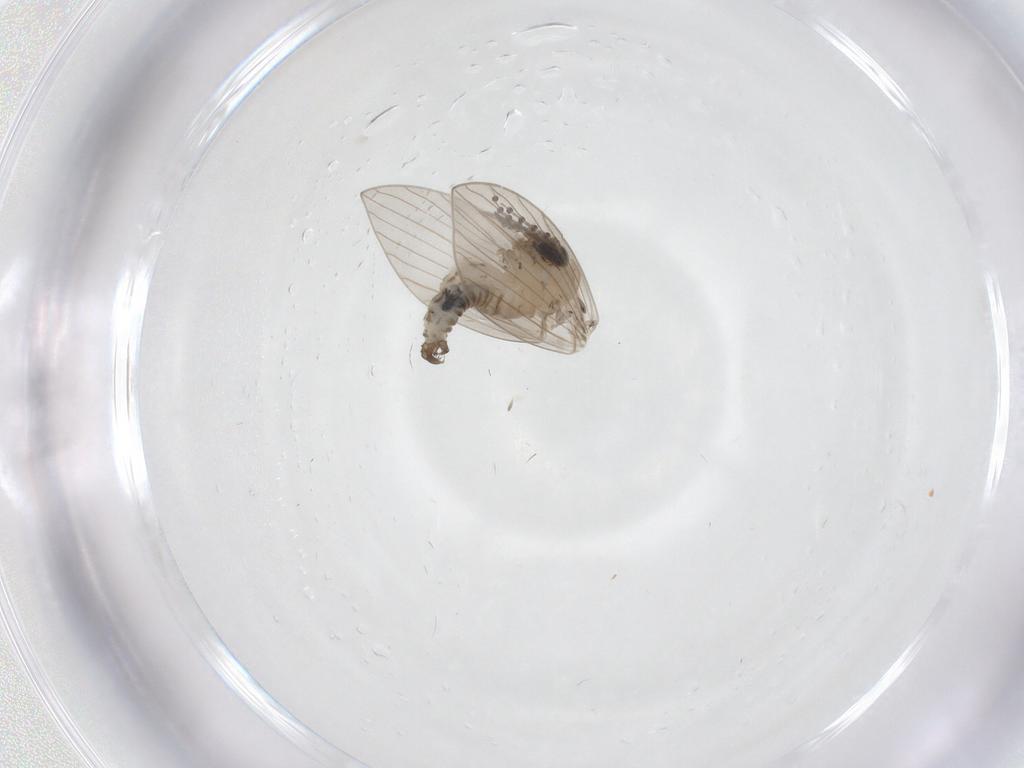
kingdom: Animalia
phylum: Arthropoda
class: Insecta
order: Diptera
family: Psychodidae
